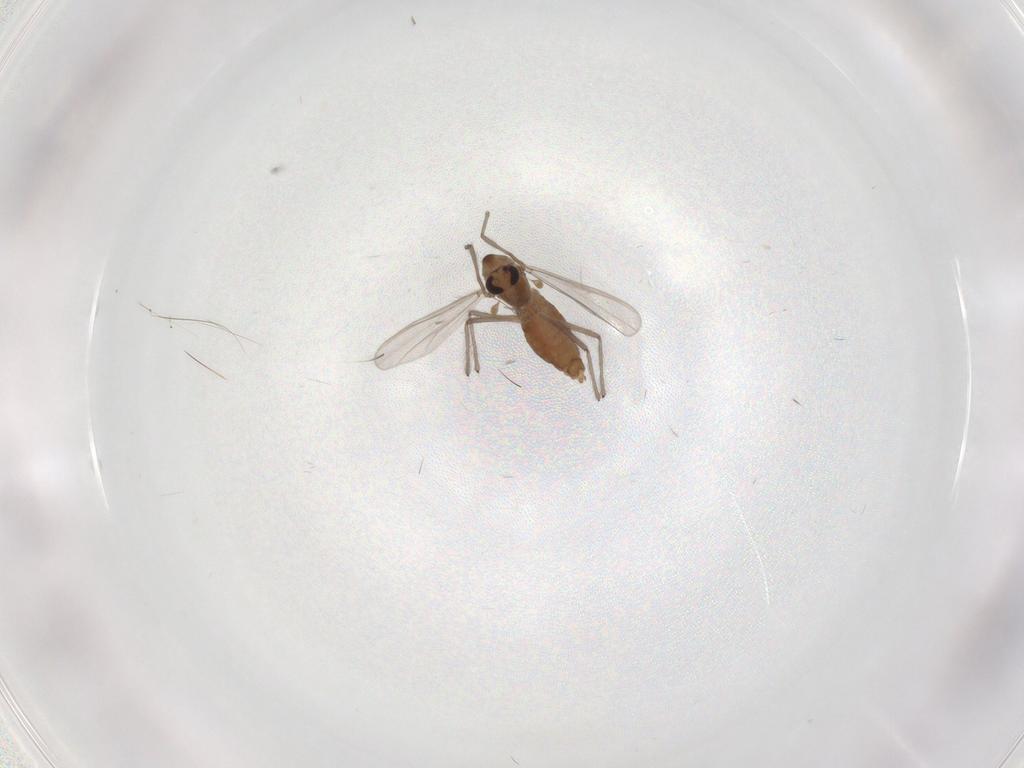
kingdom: Animalia
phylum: Arthropoda
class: Insecta
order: Diptera
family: Chironomidae
